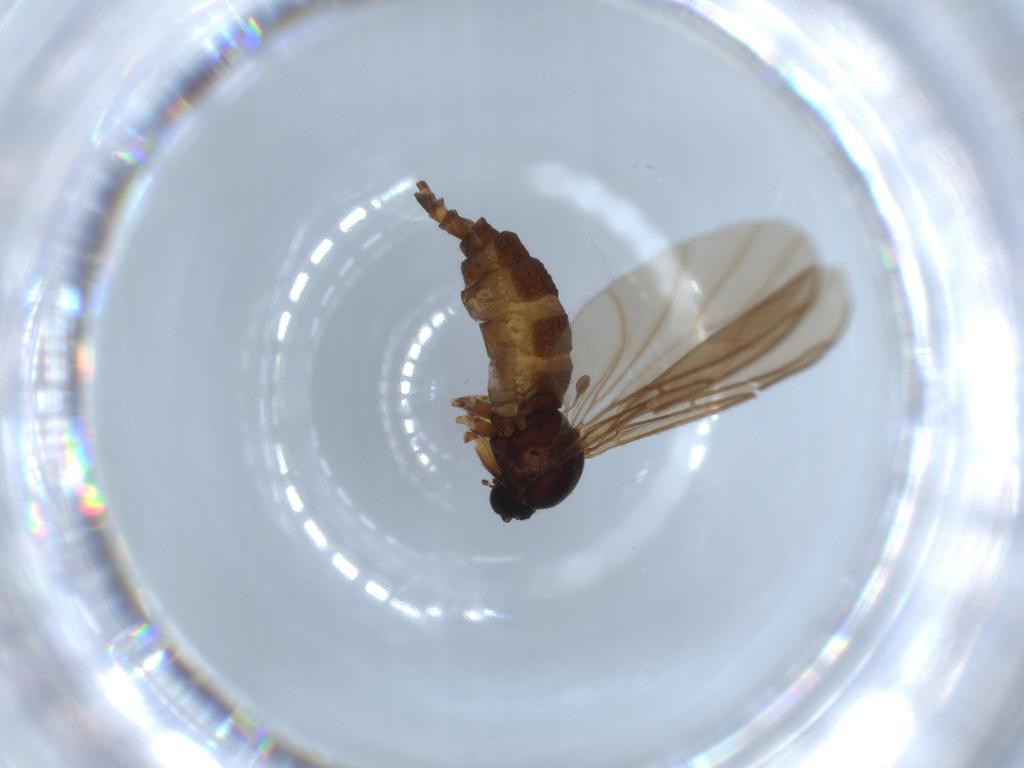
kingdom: Animalia
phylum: Arthropoda
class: Insecta
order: Diptera
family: Sciaridae
